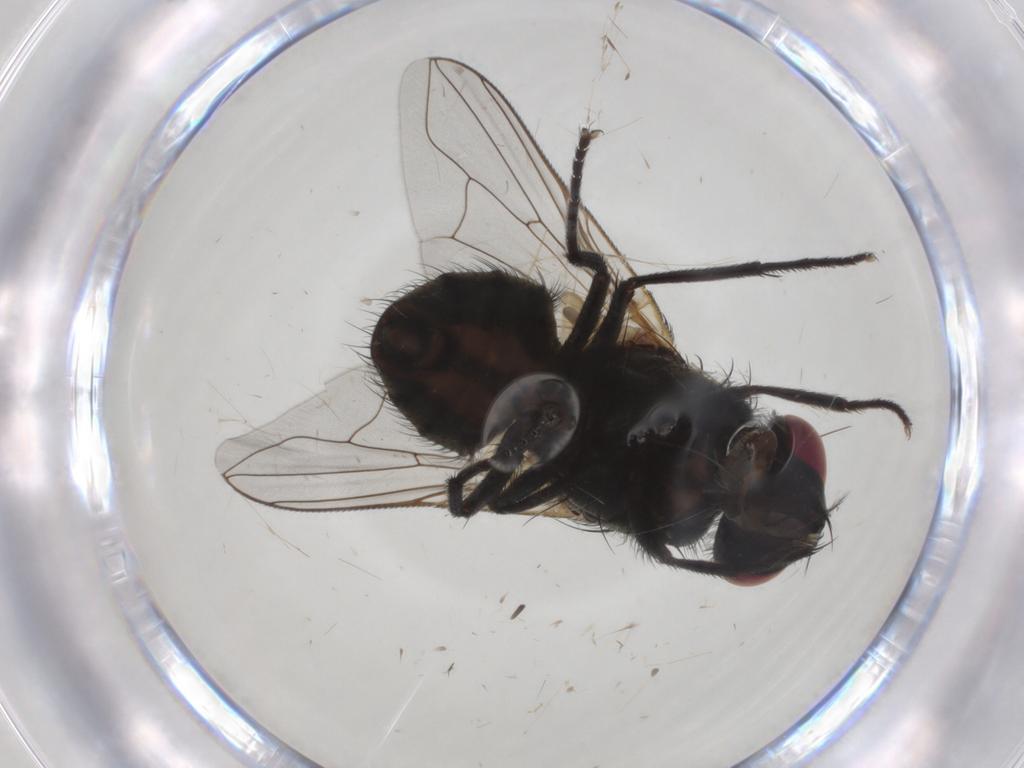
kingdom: Animalia
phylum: Arthropoda
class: Insecta
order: Diptera
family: Muscidae
